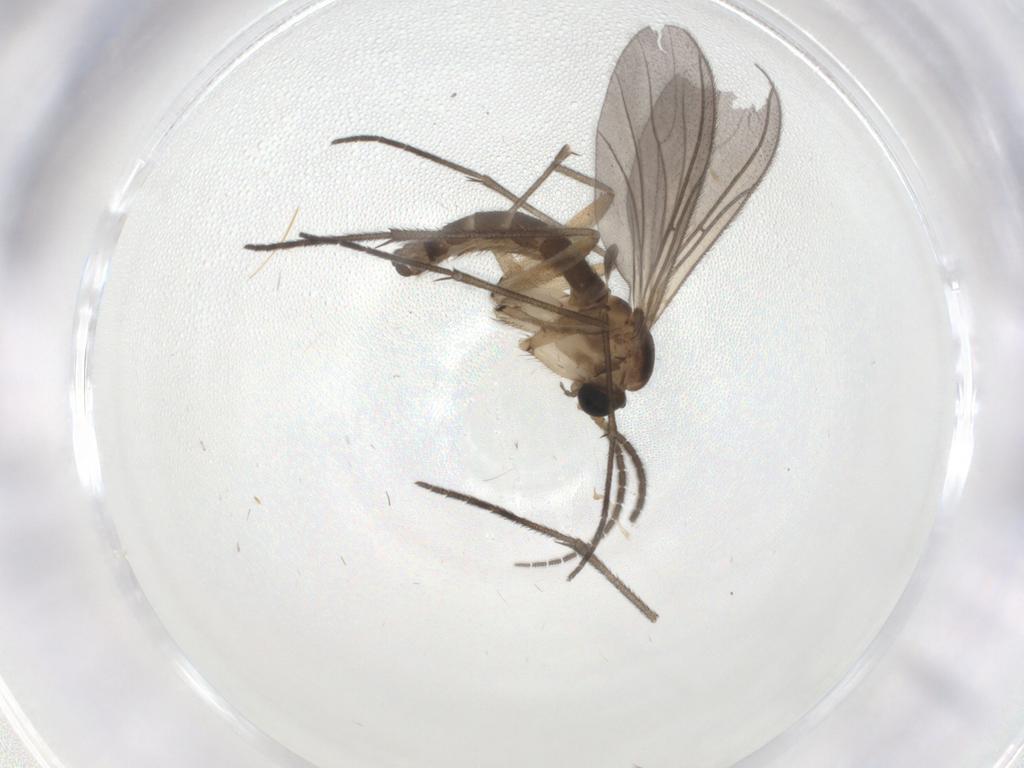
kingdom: Animalia
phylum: Arthropoda
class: Insecta
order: Diptera
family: Sciaridae
